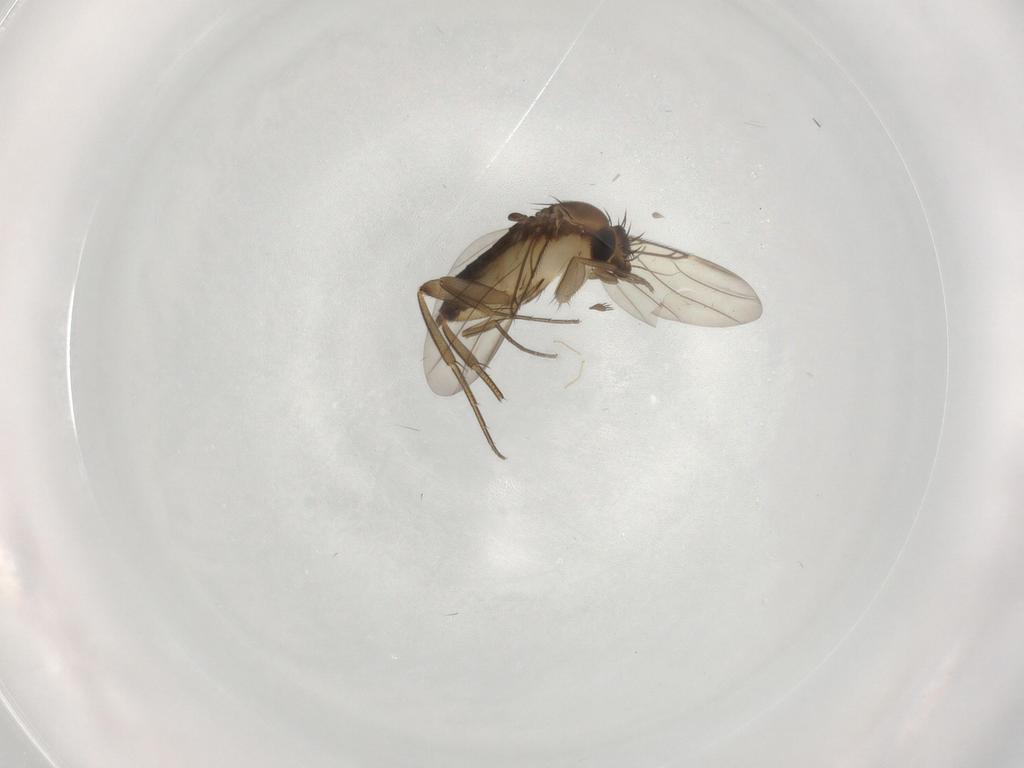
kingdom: Animalia
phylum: Arthropoda
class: Insecta
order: Diptera
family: Phoridae
